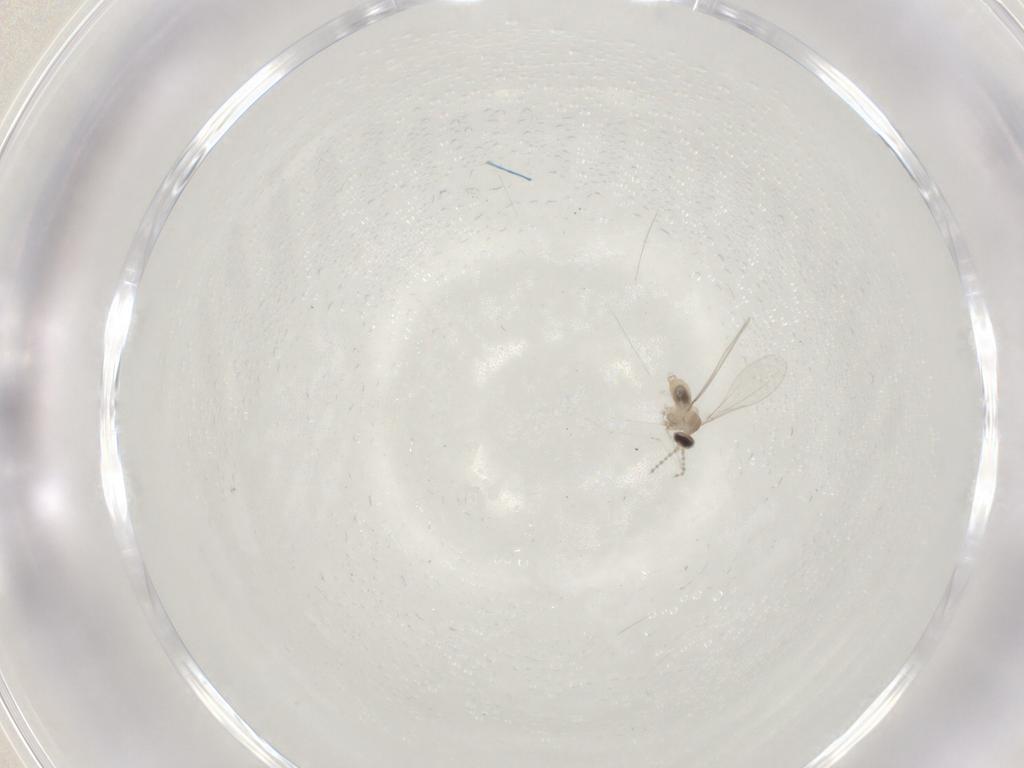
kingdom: Animalia
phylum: Arthropoda
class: Insecta
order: Diptera
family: Cecidomyiidae
